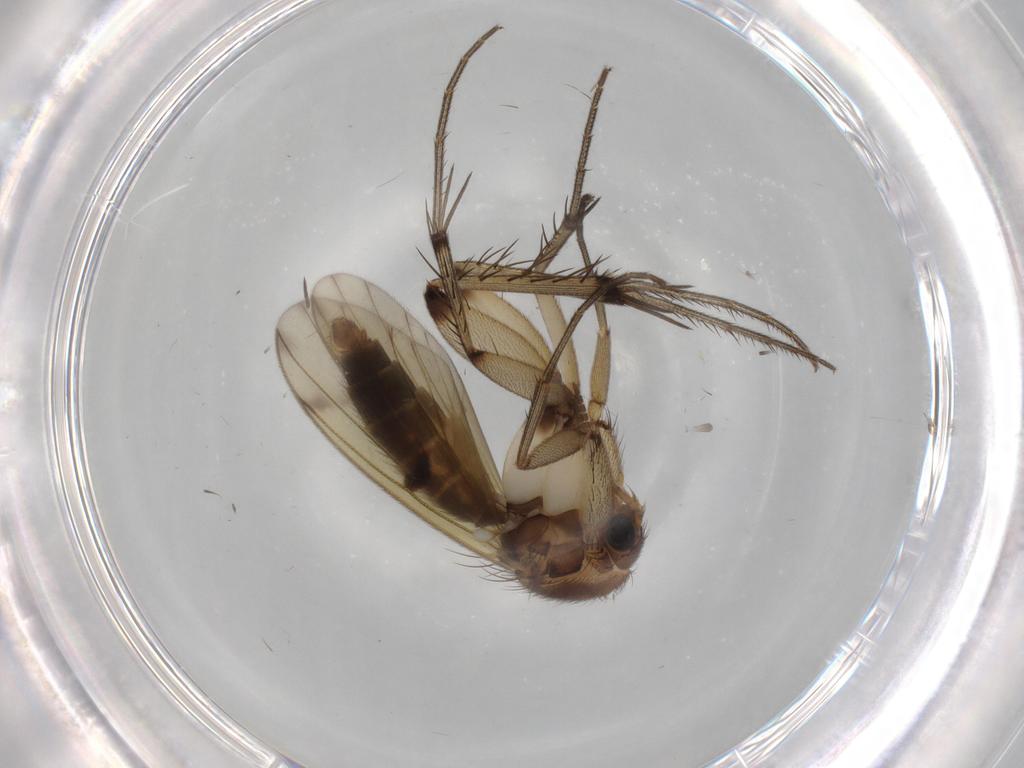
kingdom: Animalia
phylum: Arthropoda
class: Insecta
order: Diptera
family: Mycetophilidae
